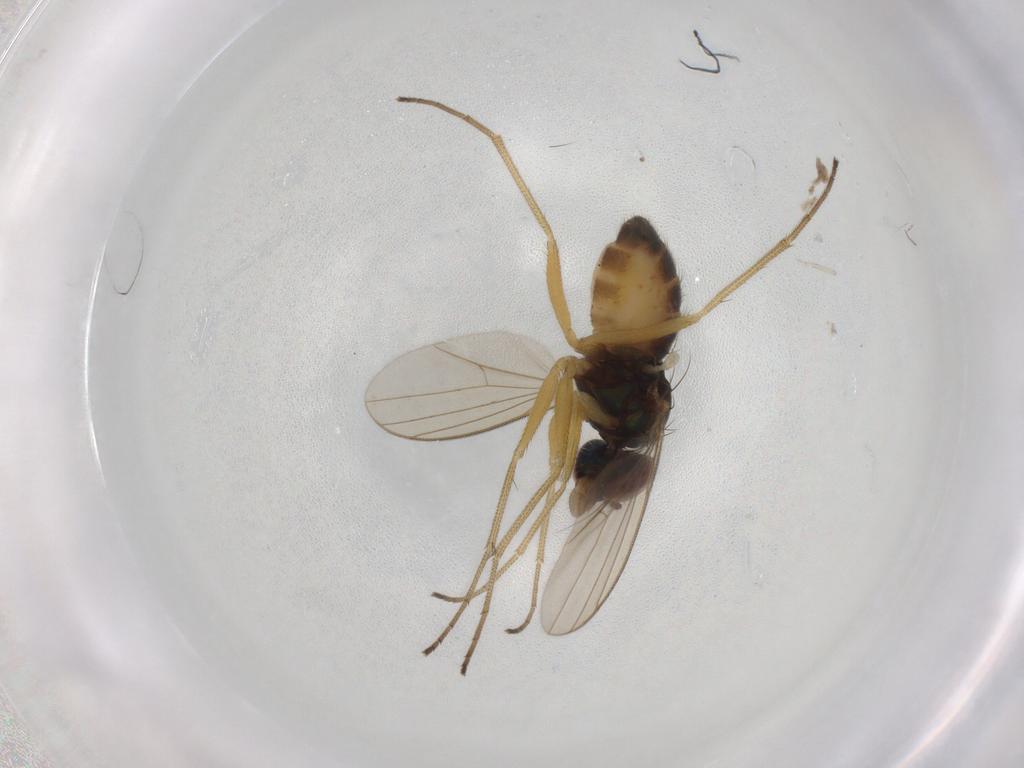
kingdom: Animalia
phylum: Arthropoda
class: Insecta
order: Diptera
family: Dolichopodidae
